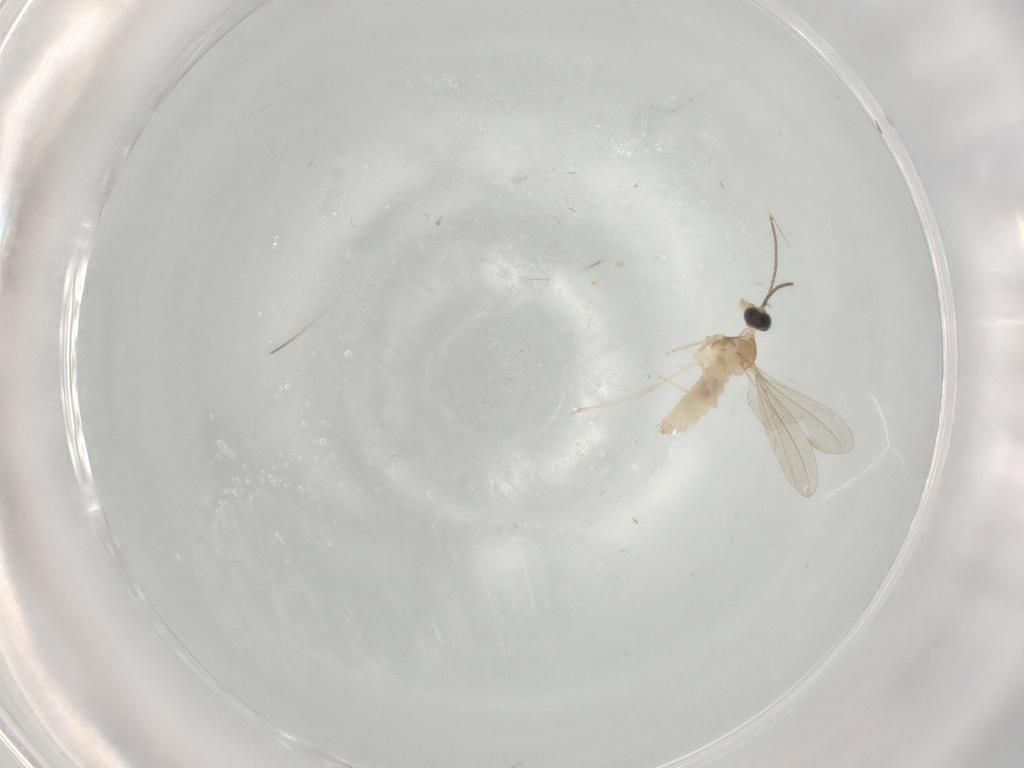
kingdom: Animalia
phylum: Arthropoda
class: Insecta
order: Diptera
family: Cecidomyiidae
